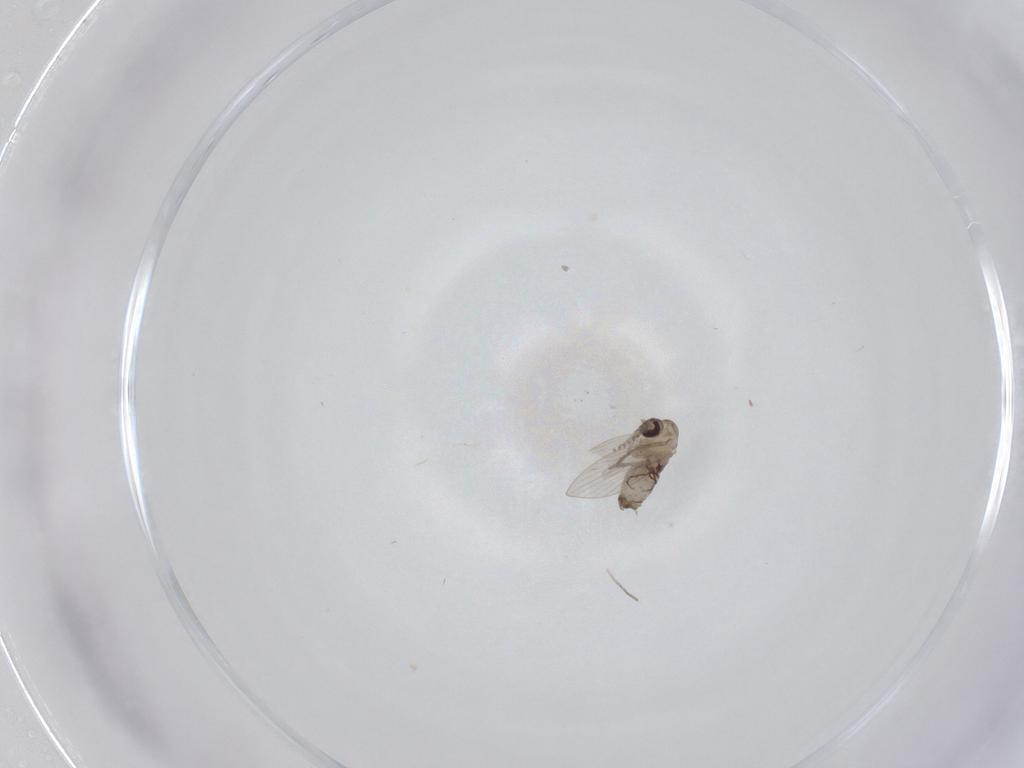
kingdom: Animalia
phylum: Arthropoda
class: Insecta
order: Diptera
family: Psychodidae
